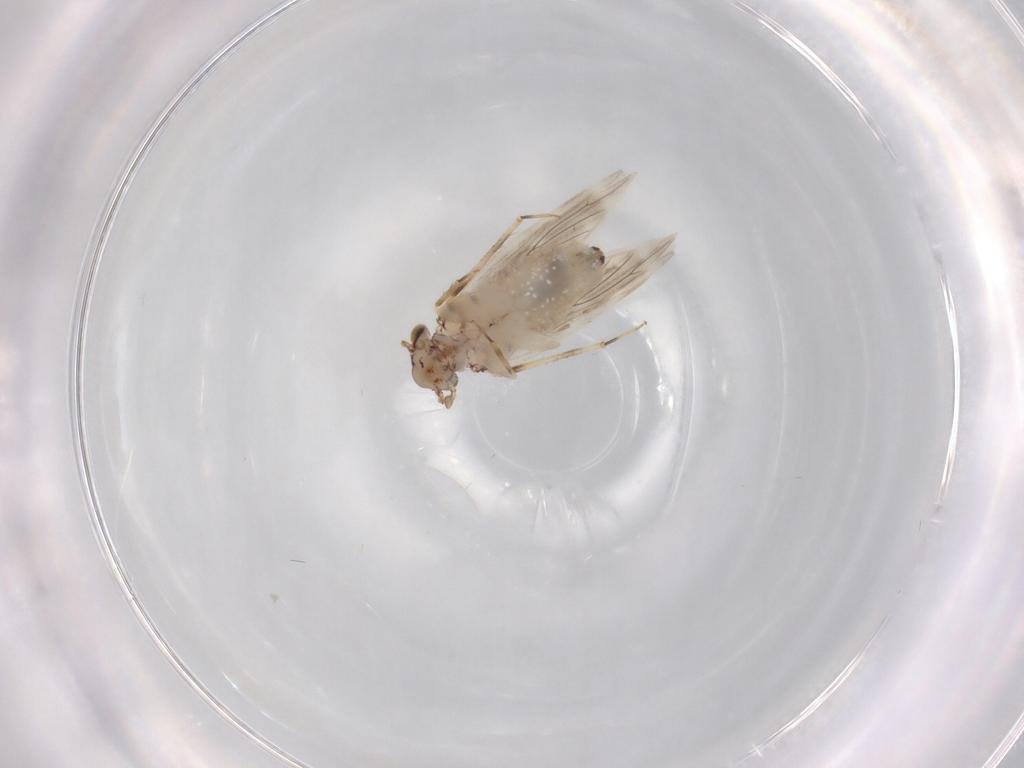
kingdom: Animalia
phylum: Arthropoda
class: Insecta
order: Psocodea
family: Lepidopsocidae
